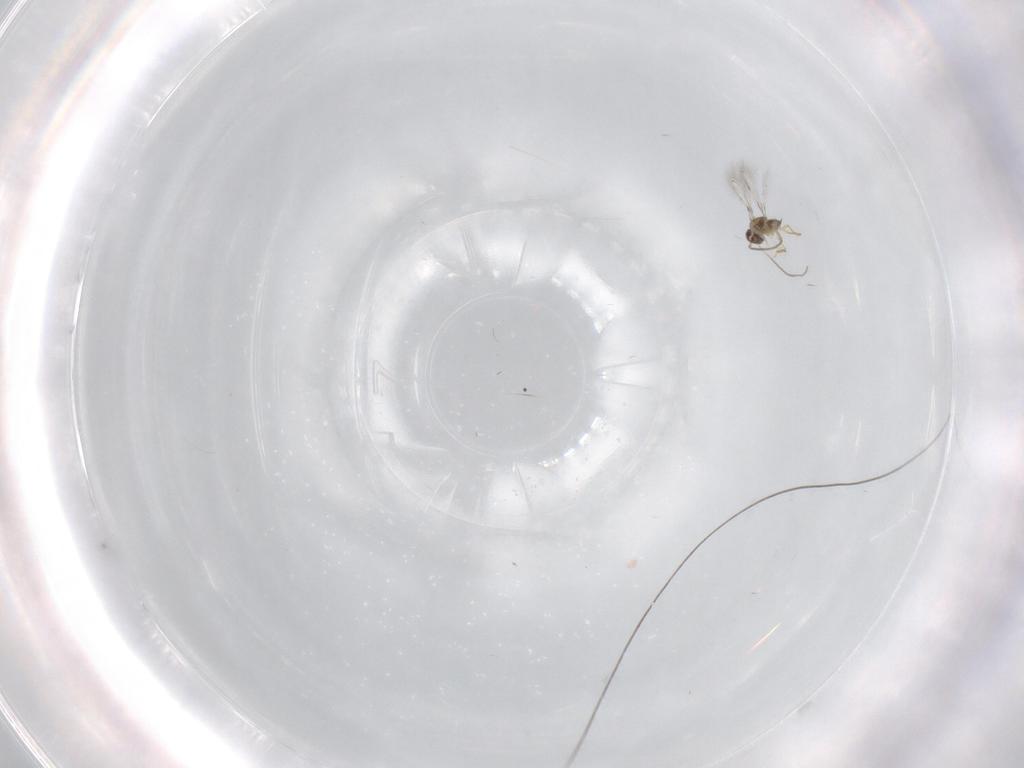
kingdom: Animalia
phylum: Arthropoda
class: Insecta
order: Hymenoptera
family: Mymaridae
